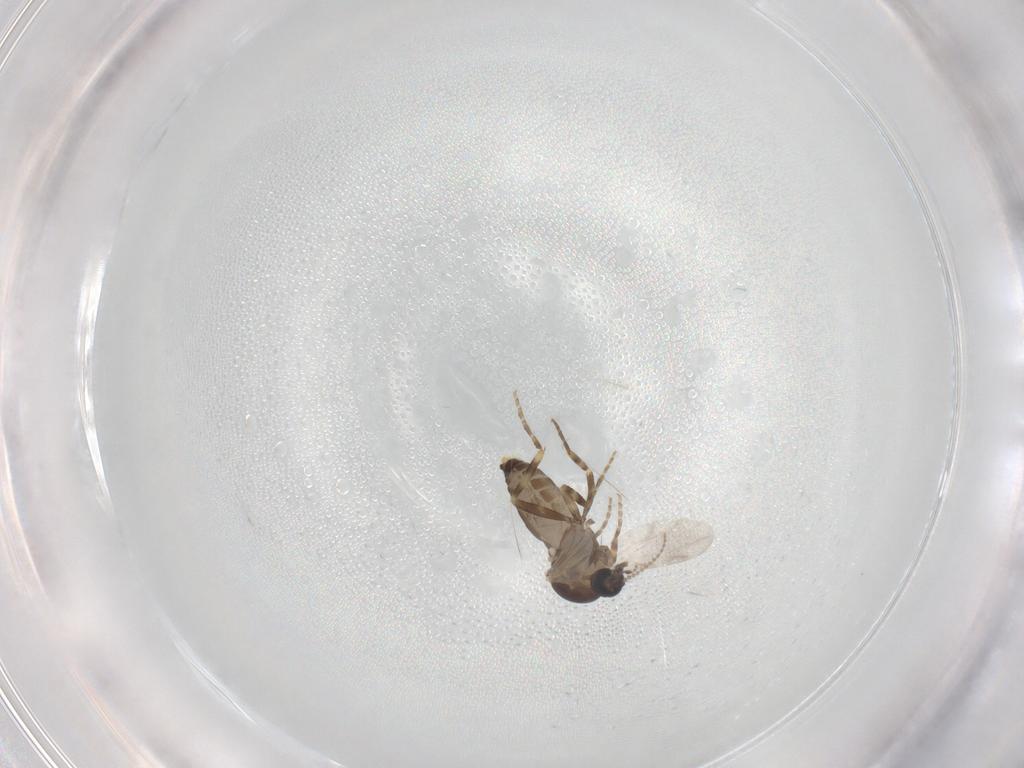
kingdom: Animalia
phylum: Arthropoda
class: Insecta
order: Diptera
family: Ceratopogonidae
